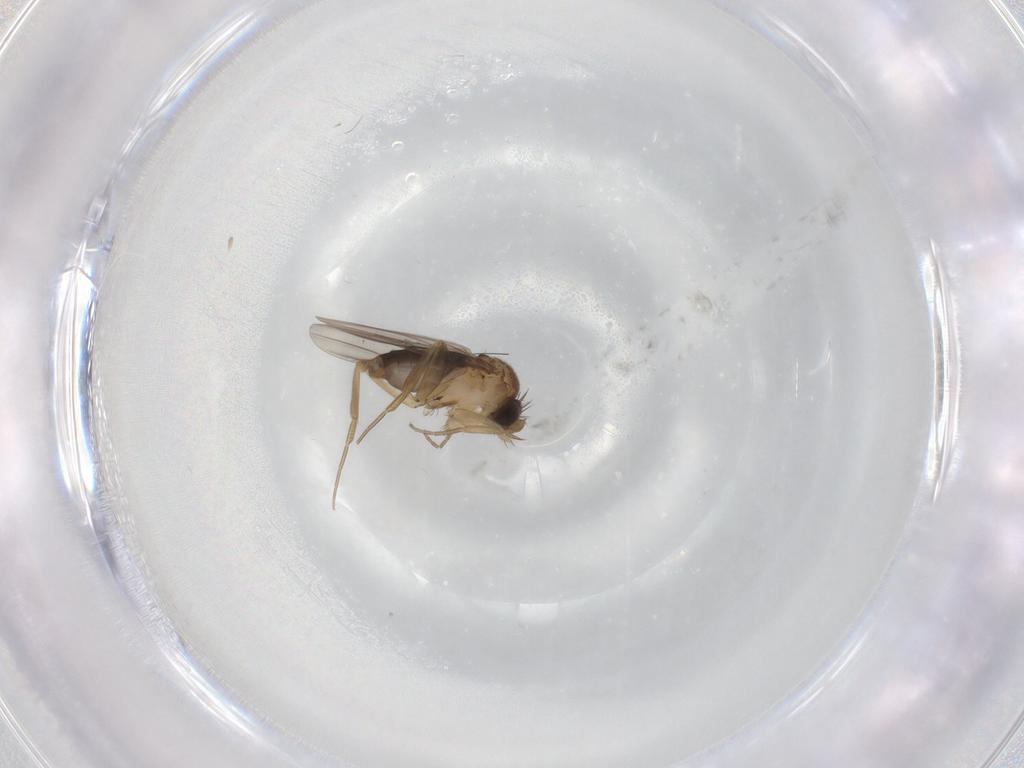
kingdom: Animalia
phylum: Arthropoda
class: Insecta
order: Diptera
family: Phoridae
